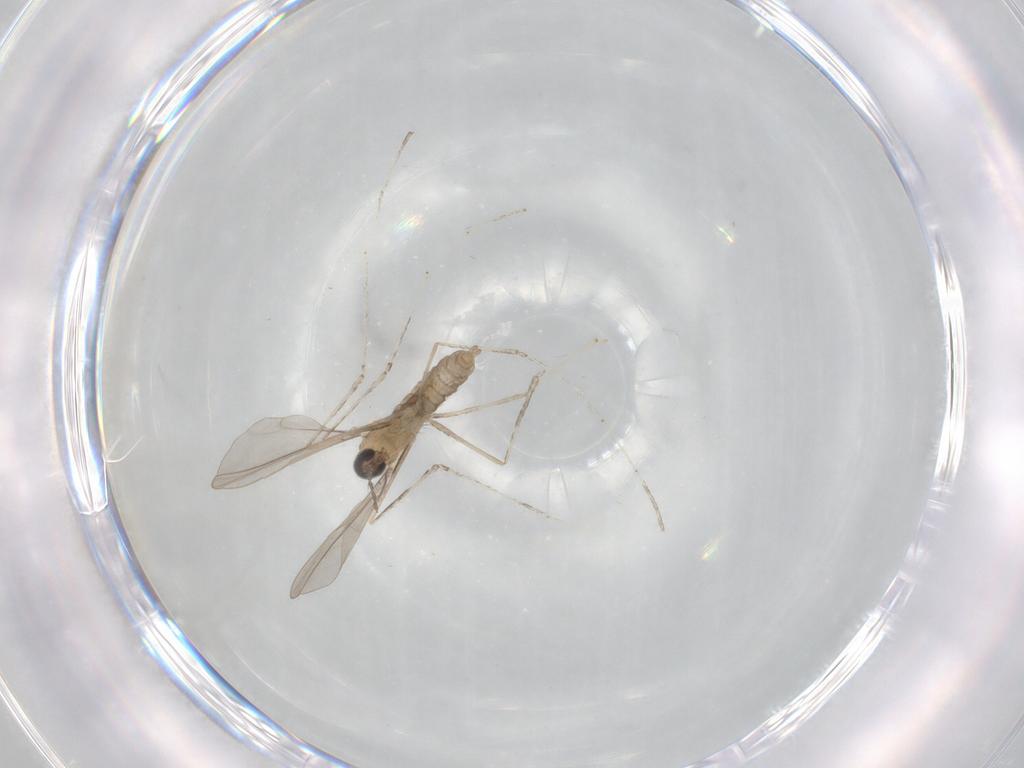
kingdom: Animalia
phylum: Arthropoda
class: Insecta
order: Diptera
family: Cecidomyiidae
